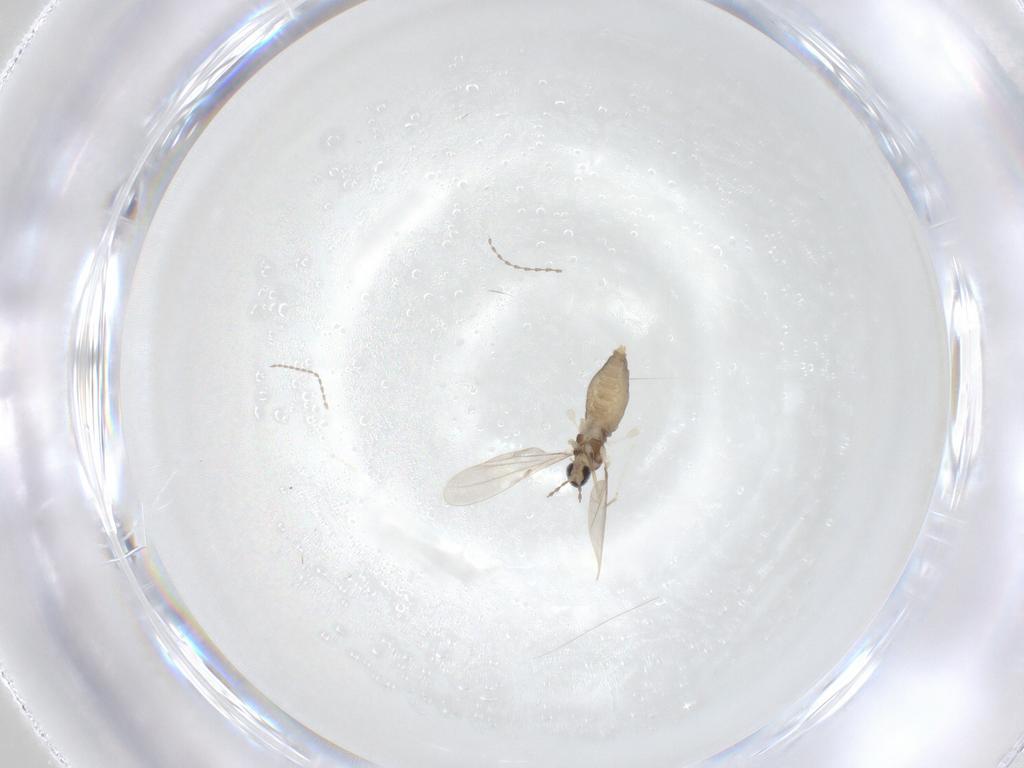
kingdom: Animalia
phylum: Arthropoda
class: Insecta
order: Diptera
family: Cecidomyiidae
